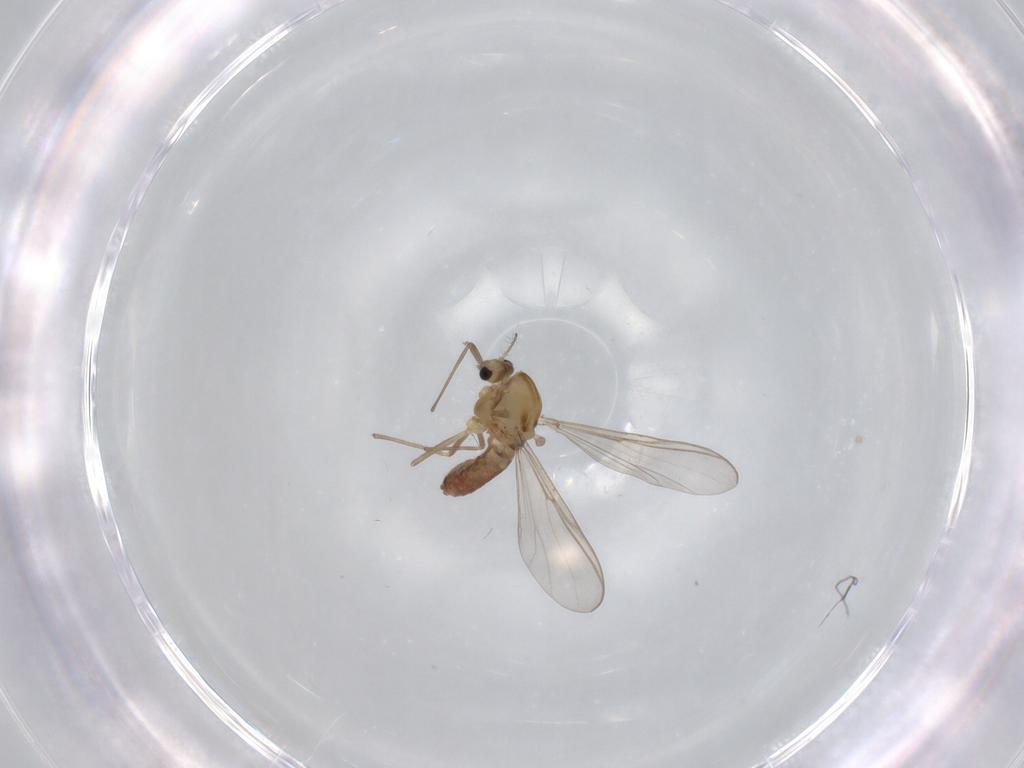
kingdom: Animalia
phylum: Arthropoda
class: Insecta
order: Diptera
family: Chironomidae
